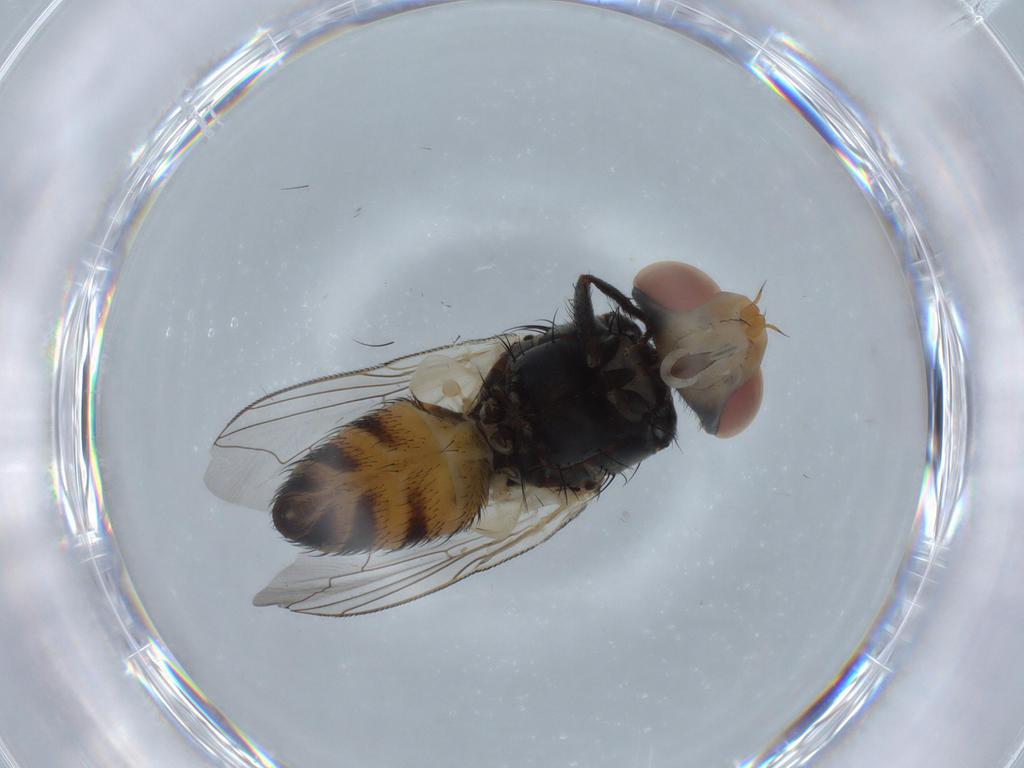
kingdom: Animalia
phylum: Arthropoda
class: Insecta
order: Diptera
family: Sarcophagidae
